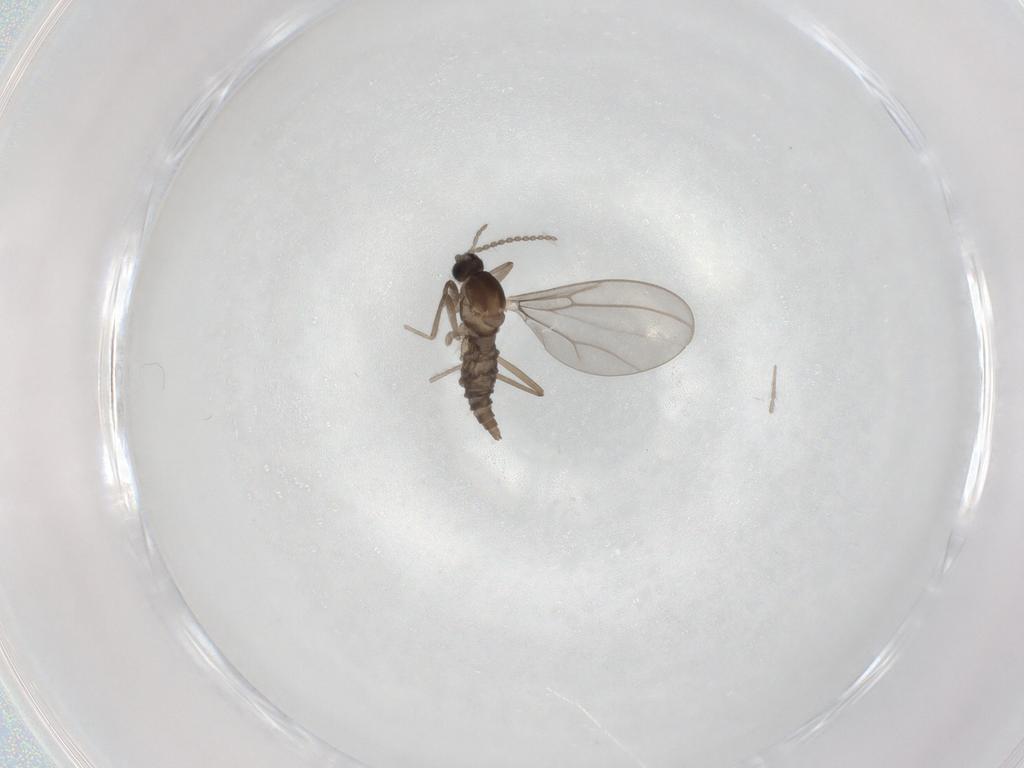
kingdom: Animalia
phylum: Arthropoda
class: Insecta
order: Diptera
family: Cecidomyiidae
